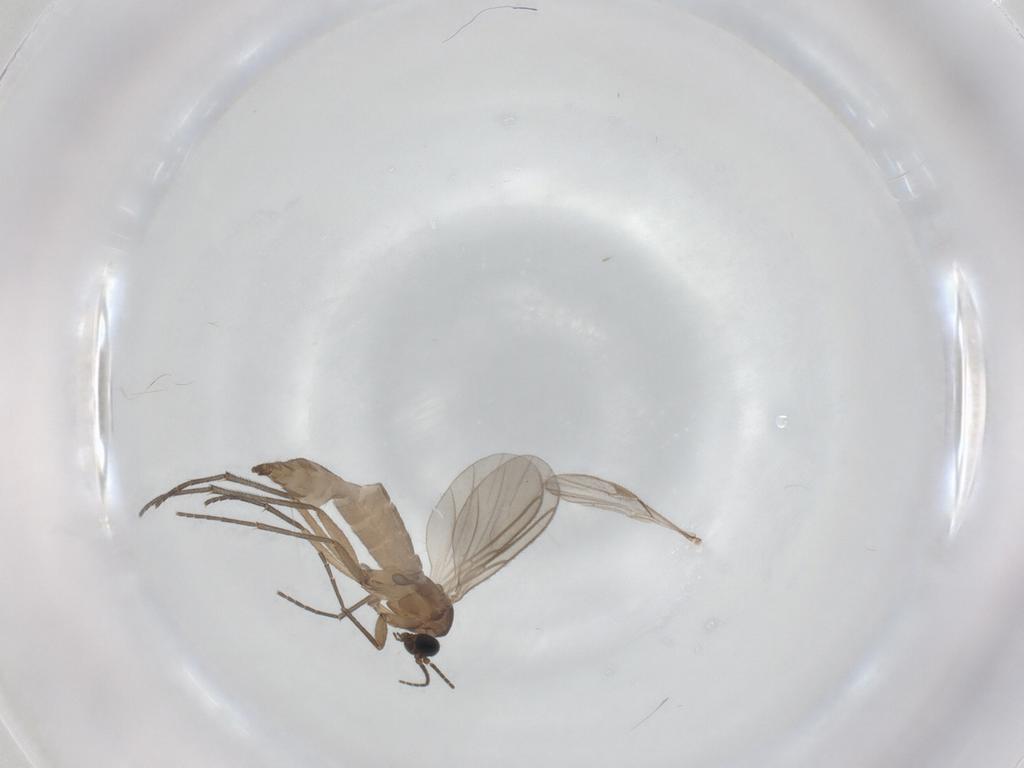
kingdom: Animalia
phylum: Arthropoda
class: Insecta
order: Diptera
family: Sciaridae
